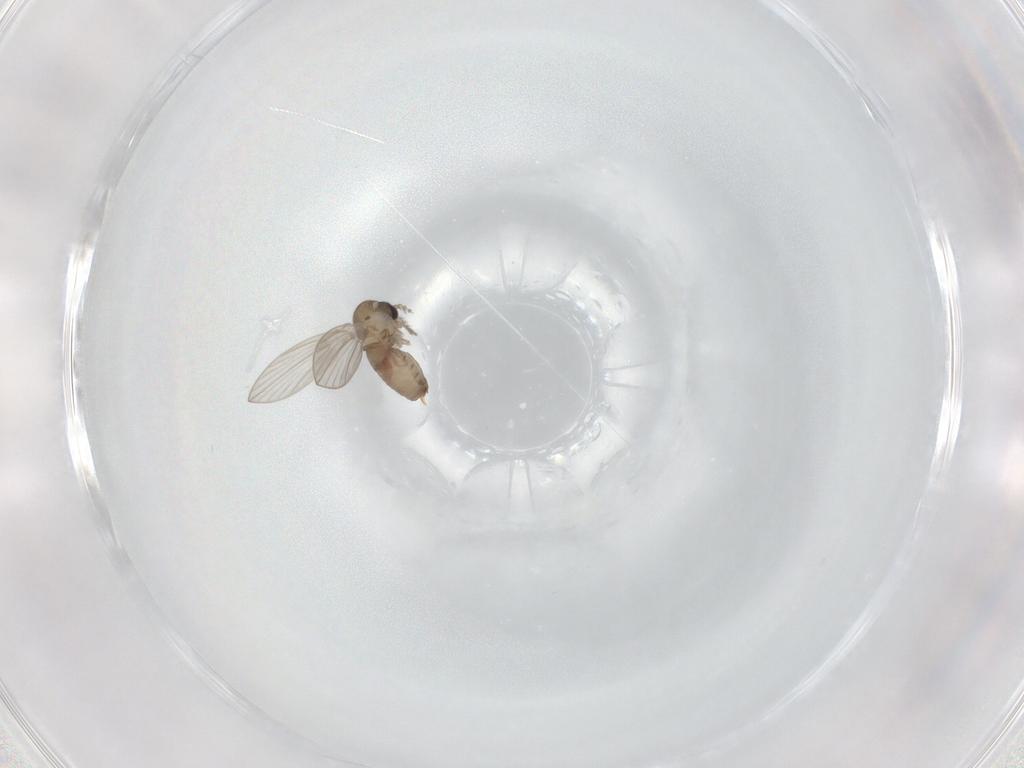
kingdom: Animalia
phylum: Arthropoda
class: Insecta
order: Diptera
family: Psychodidae
